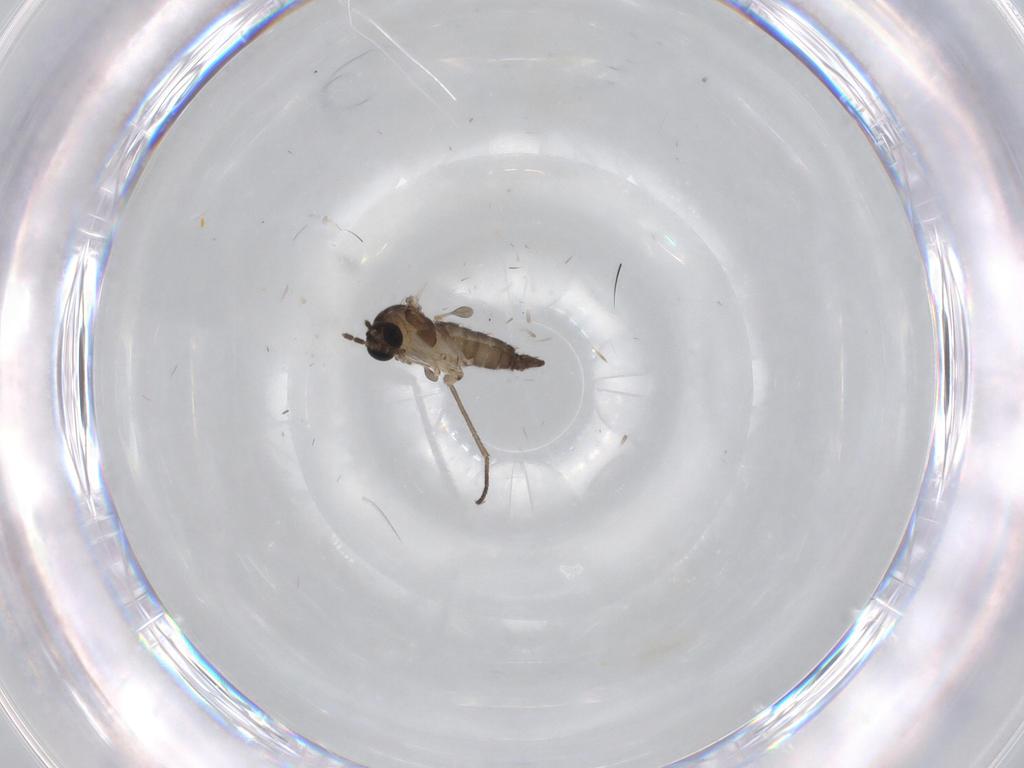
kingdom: Animalia
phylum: Arthropoda
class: Insecta
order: Diptera
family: Sciaridae
